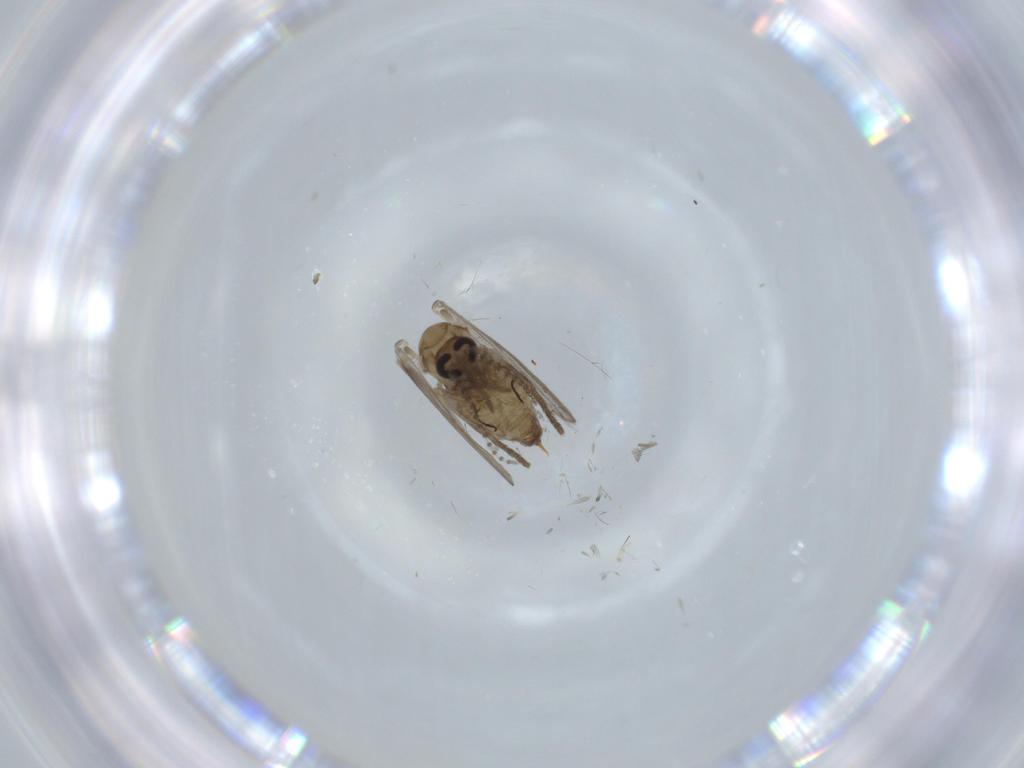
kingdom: Animalia
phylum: Arthropoda
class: Insecta
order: Diptera
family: Psychodidae
